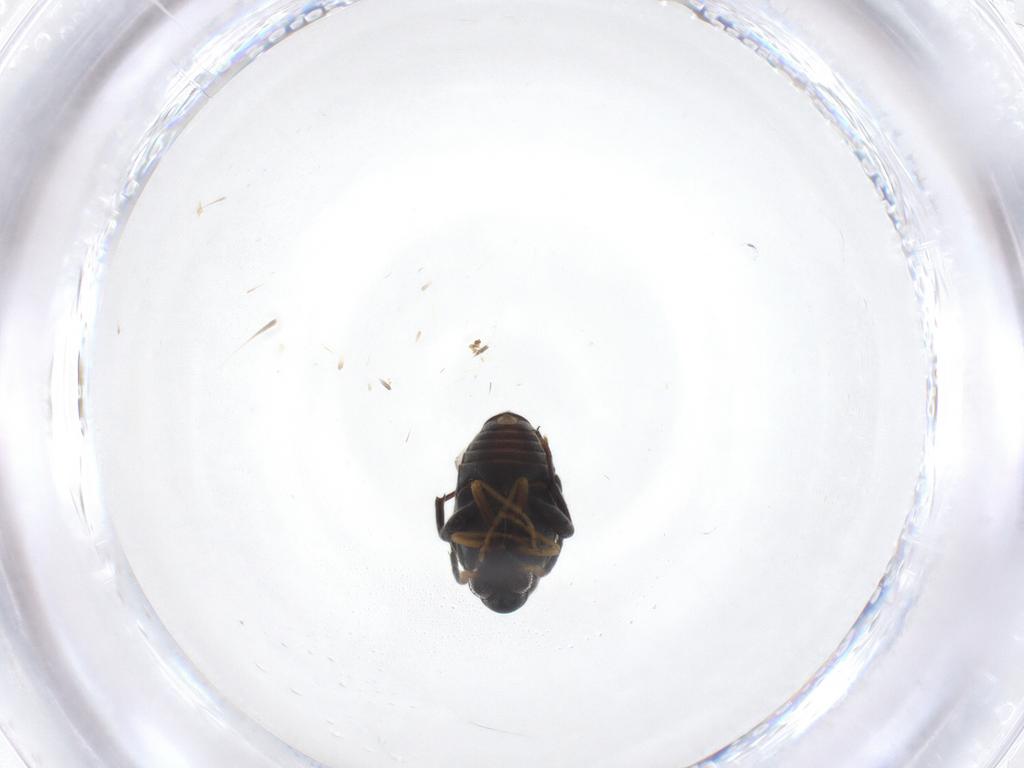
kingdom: Animalia
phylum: Arthropoda
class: Insecta
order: Coleoptera
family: Chrysomelidae
